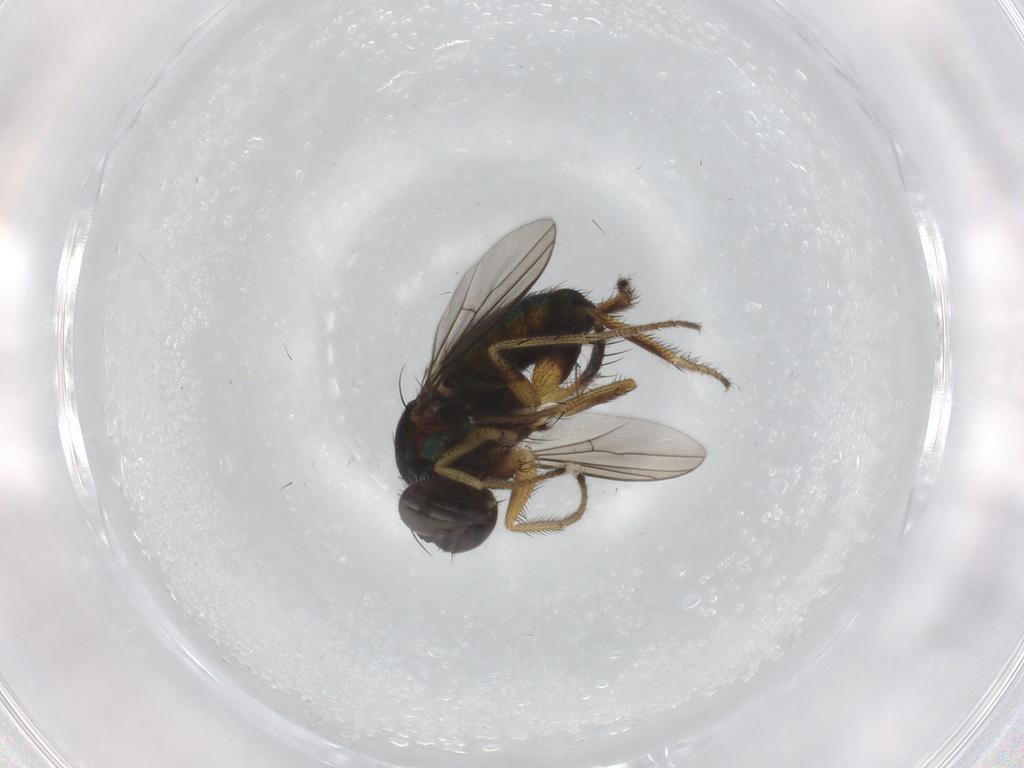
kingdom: Animalia
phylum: Arthropoda
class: Insecta
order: Diptera
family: Dolichopodidae
